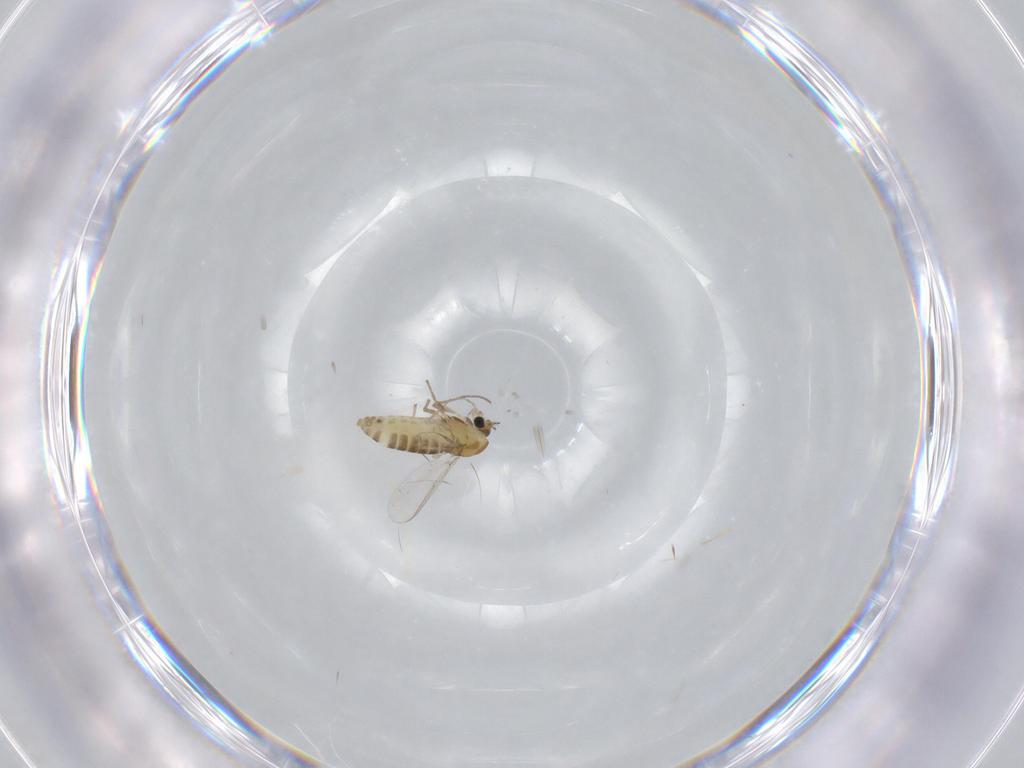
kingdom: Animalia
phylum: Arthropoda
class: Insecta
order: Diptera
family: Chironomidae
